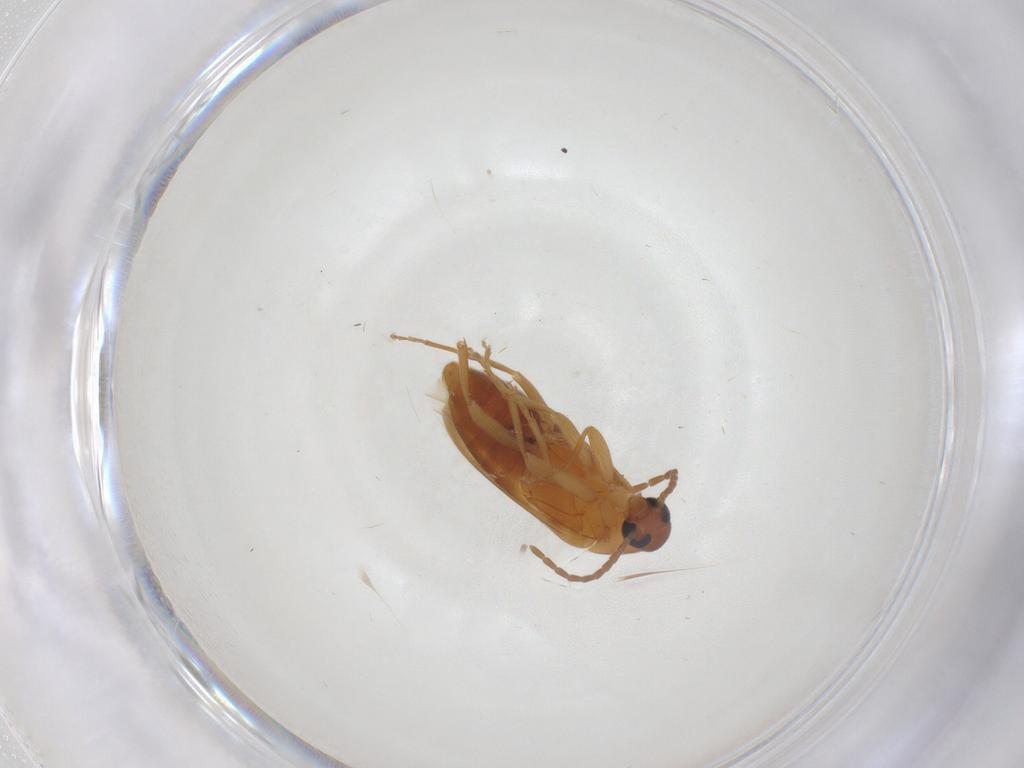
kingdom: Animalia
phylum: Arthropoda
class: Insecta
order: Coleoptera
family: Scraptiidae
